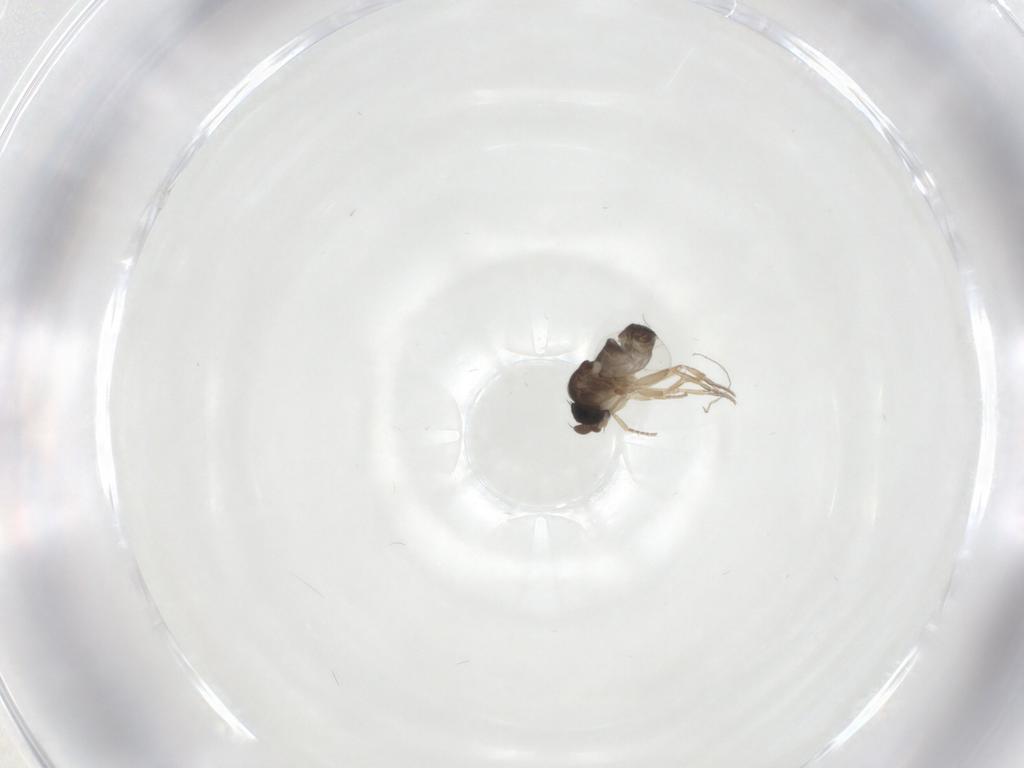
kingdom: Animalia
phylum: Arthropoda
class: Insecta
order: Diptera
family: Phoridae
